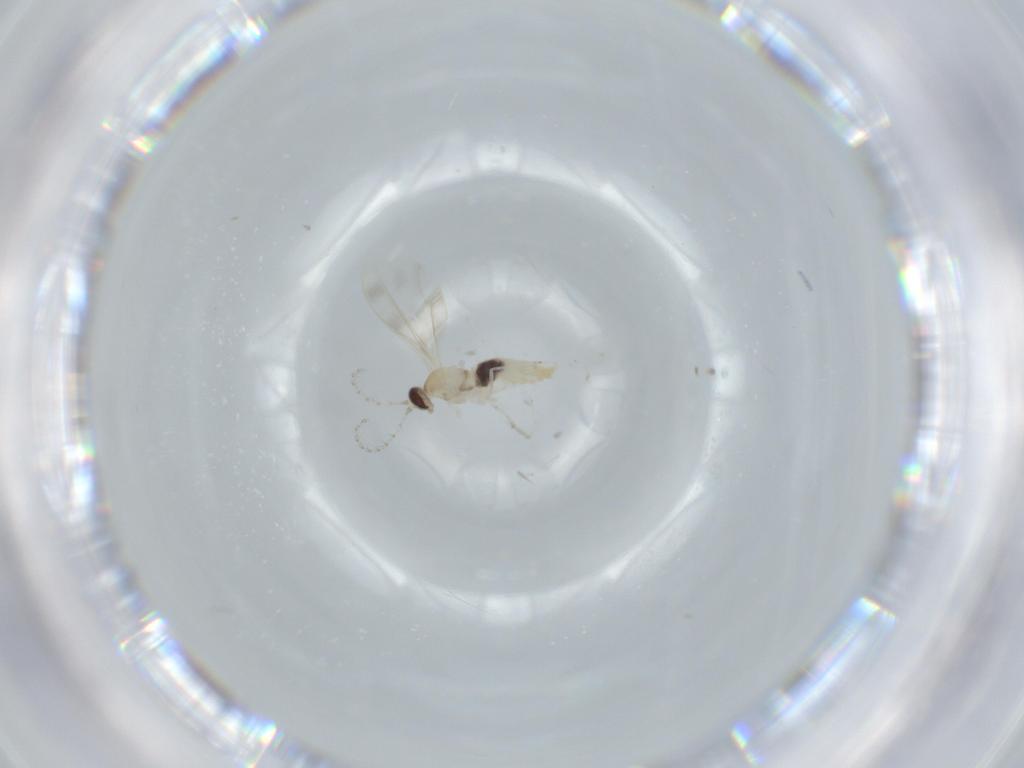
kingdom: Animalia
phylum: Arthropoda
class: Insecta
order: Diptera
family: Cecidomyiidae
